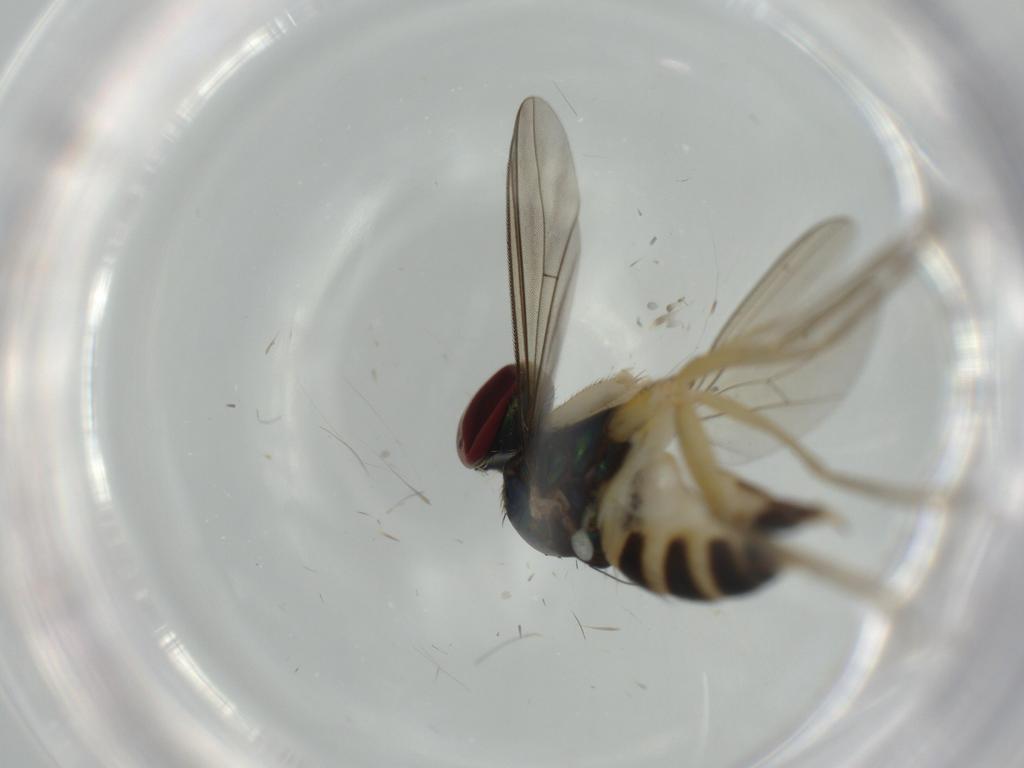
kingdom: Animalia
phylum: Arthropoda
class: Insecta
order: Diptera
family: Dolichopodidae
